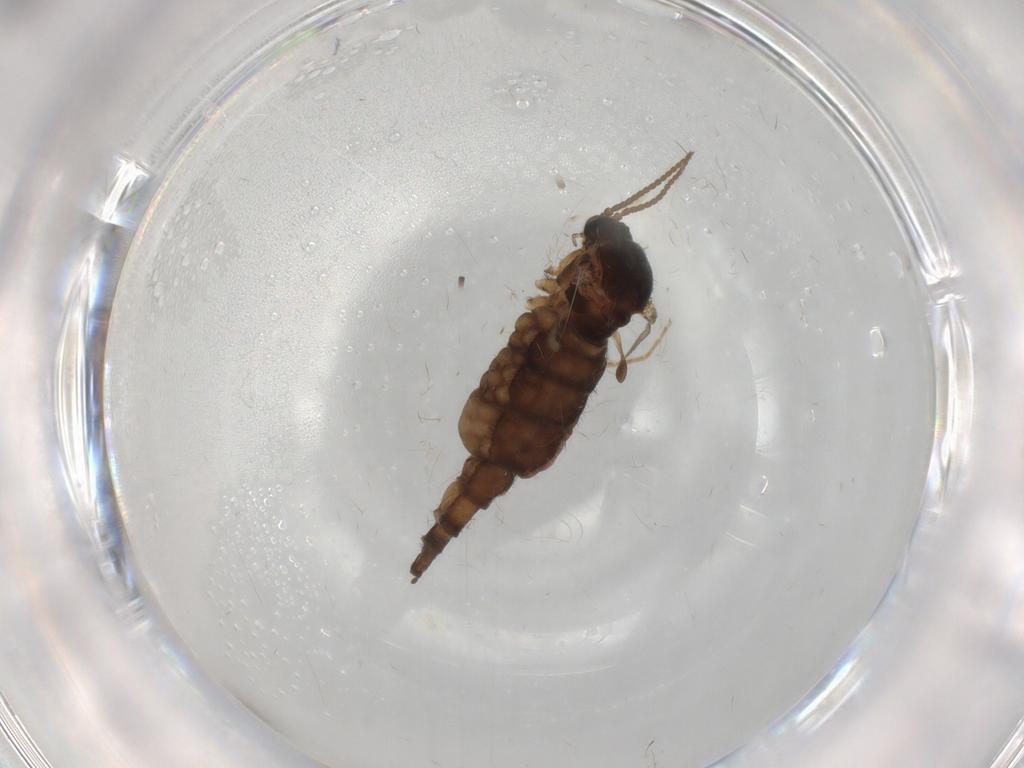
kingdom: Animalia
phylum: Arthropoda
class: Insecta
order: Diptera
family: Sciaridae
